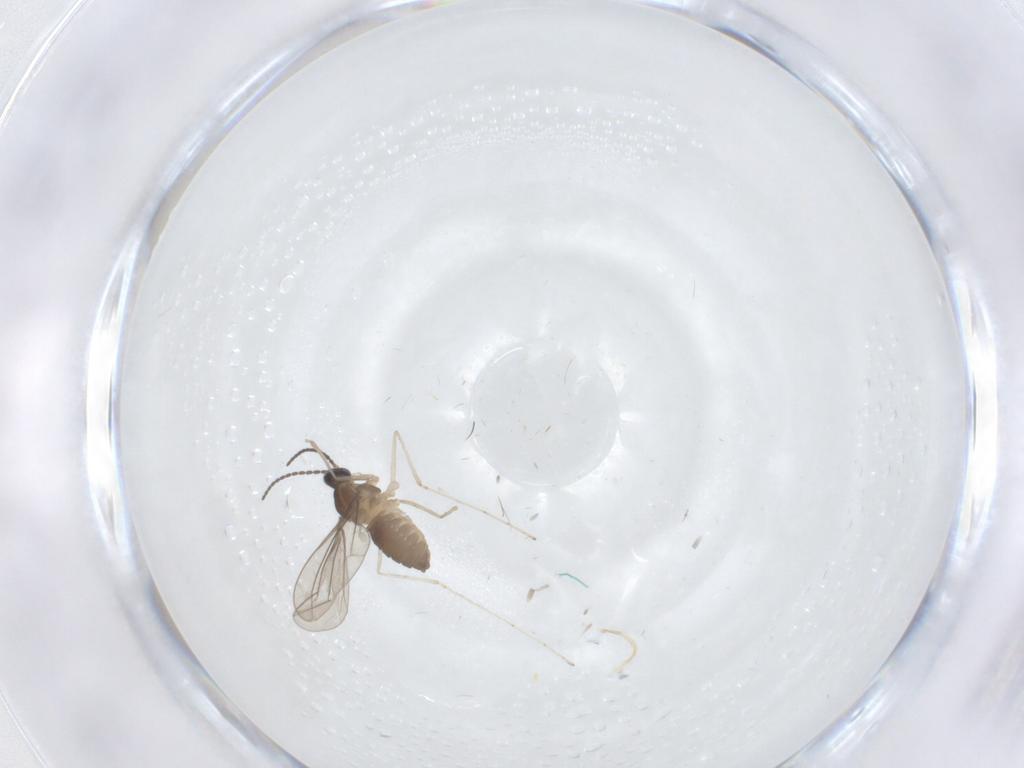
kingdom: Animalia
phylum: Arthropoda
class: Insecta
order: Diptera
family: Cecidomyiidae
